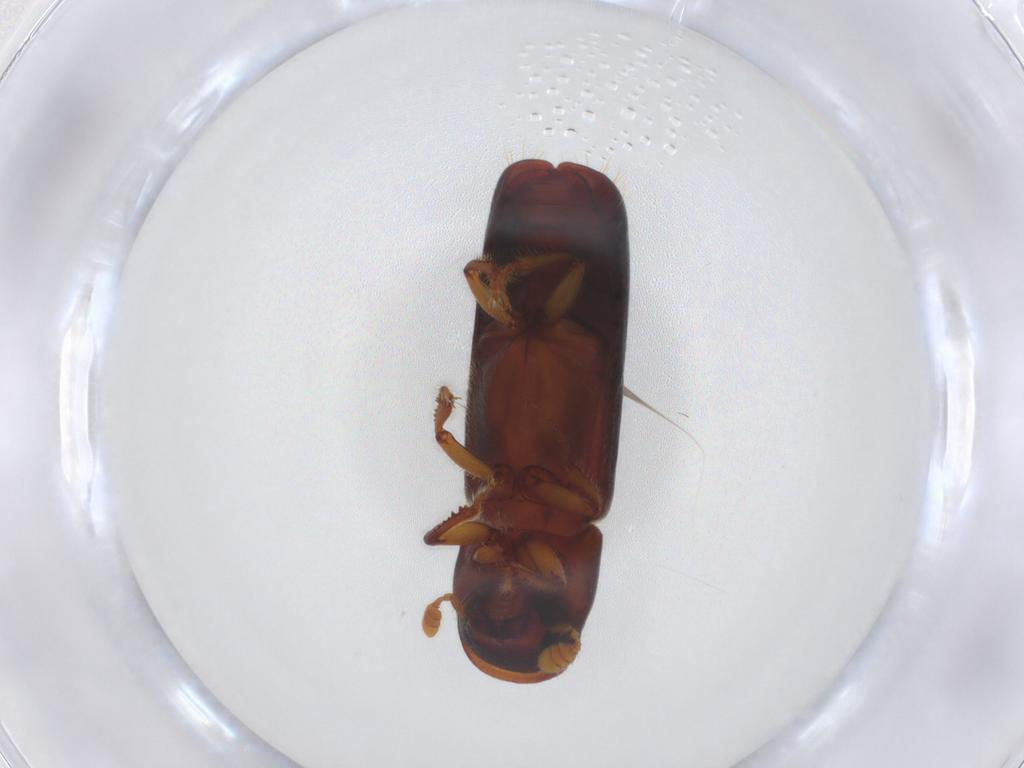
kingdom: Animalia
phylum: Arthropoda
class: Insecta
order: Coleoptera
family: Curculionidae
